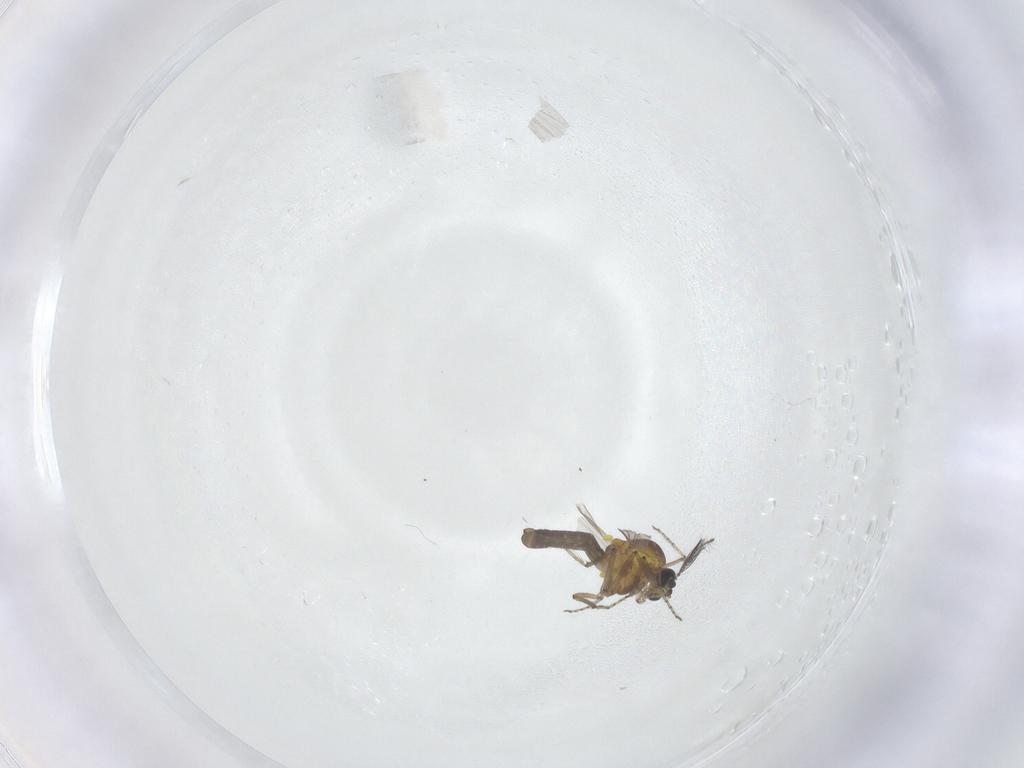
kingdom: Animalia
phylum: Arthropoda
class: Insecta
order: Diptera
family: Ceratopogonidae
